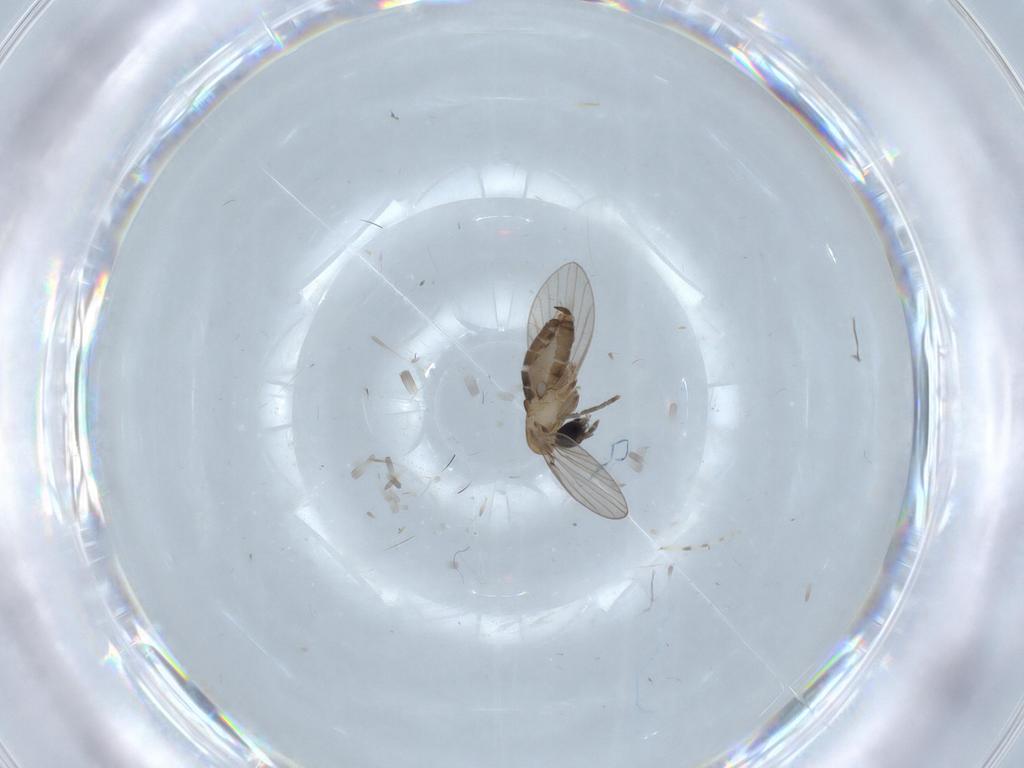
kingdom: Animalia
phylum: Arthropoda
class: Insecta
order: Diptera
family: Psychodidae
